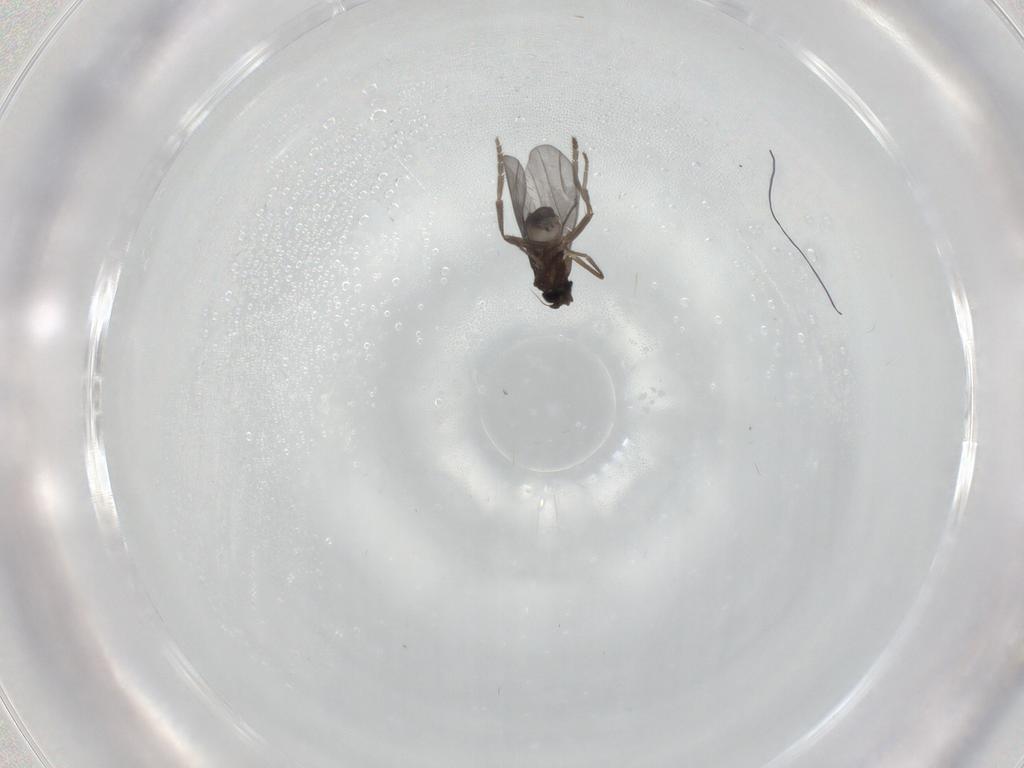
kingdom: Animalia
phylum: Arthropoda
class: Insecta
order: Diptera
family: Phoridae
